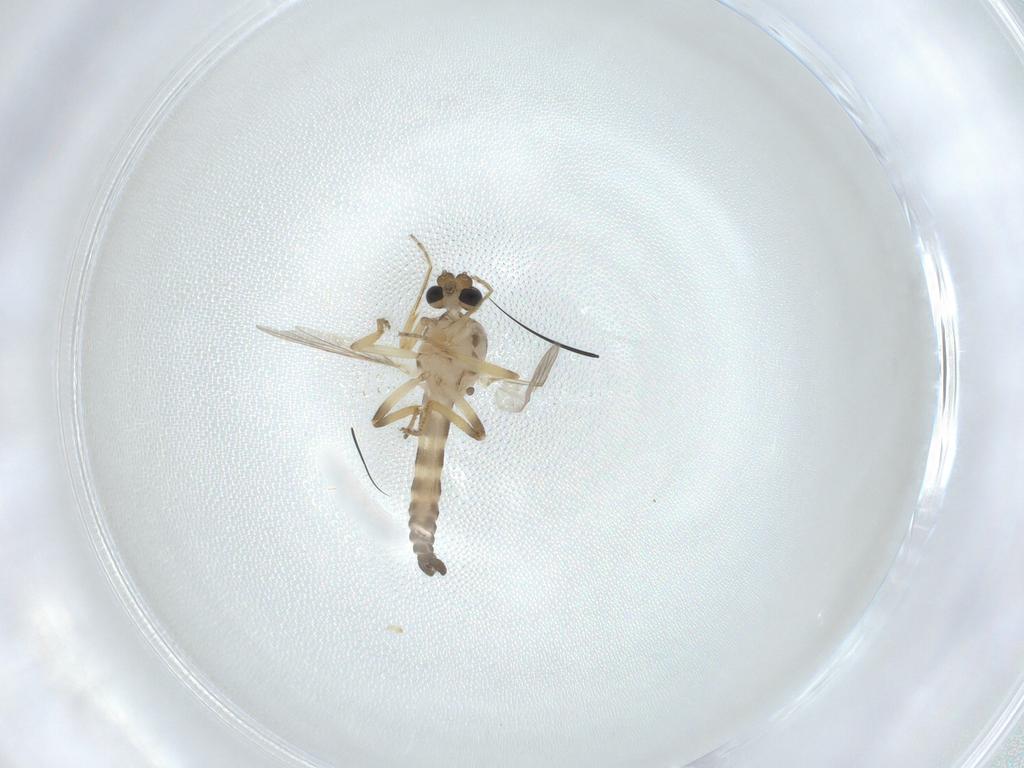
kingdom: Animalia
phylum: Arthropoda
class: Insecta
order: Diptera
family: Ceratopogonidae
